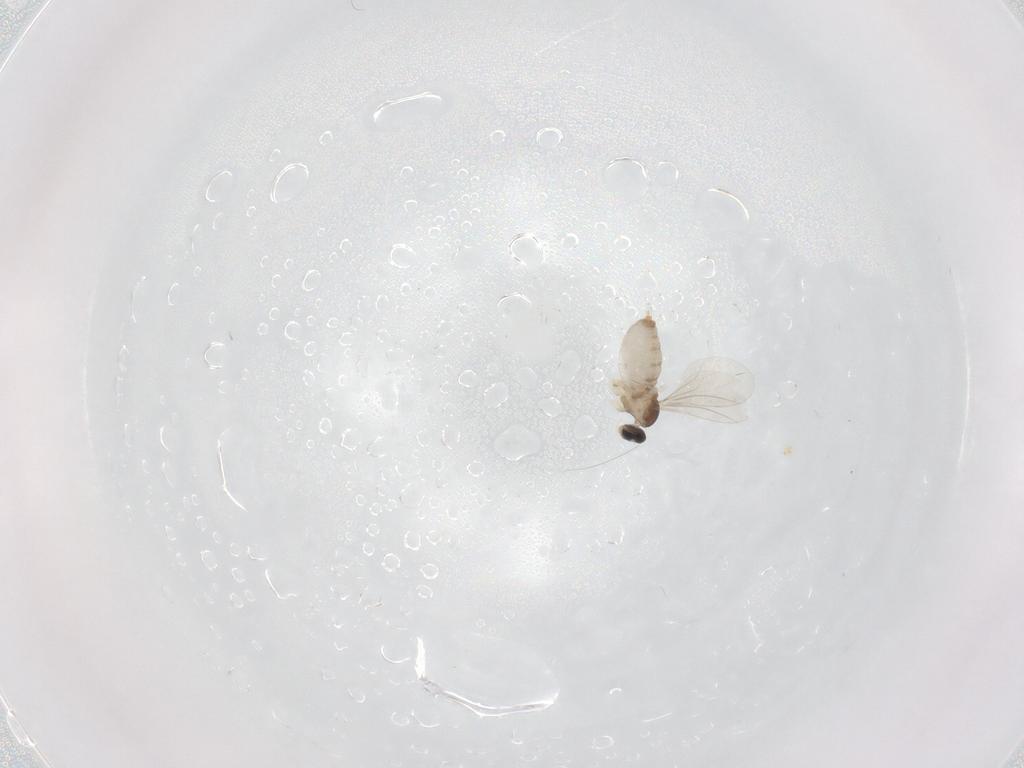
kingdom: Animalia
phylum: Arthropoda
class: Insecta
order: Diptera
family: Cecidomyiidae
